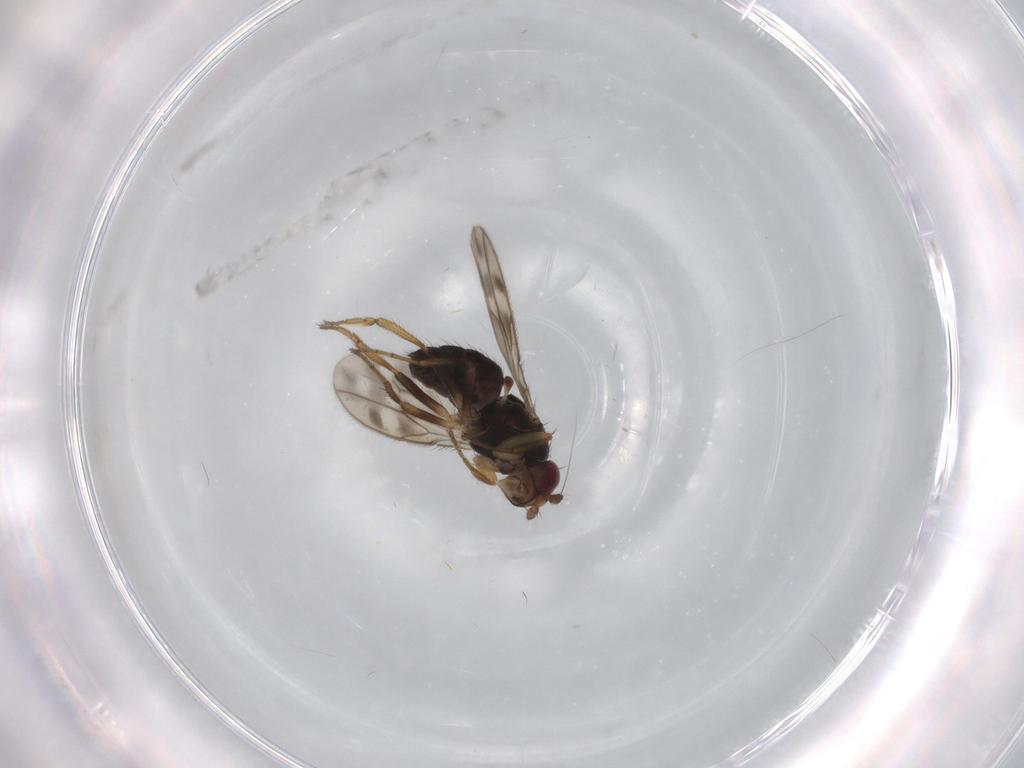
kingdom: Animalia
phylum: Arthropoda
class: Insecta
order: Diptera
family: Sphaeroceridae
